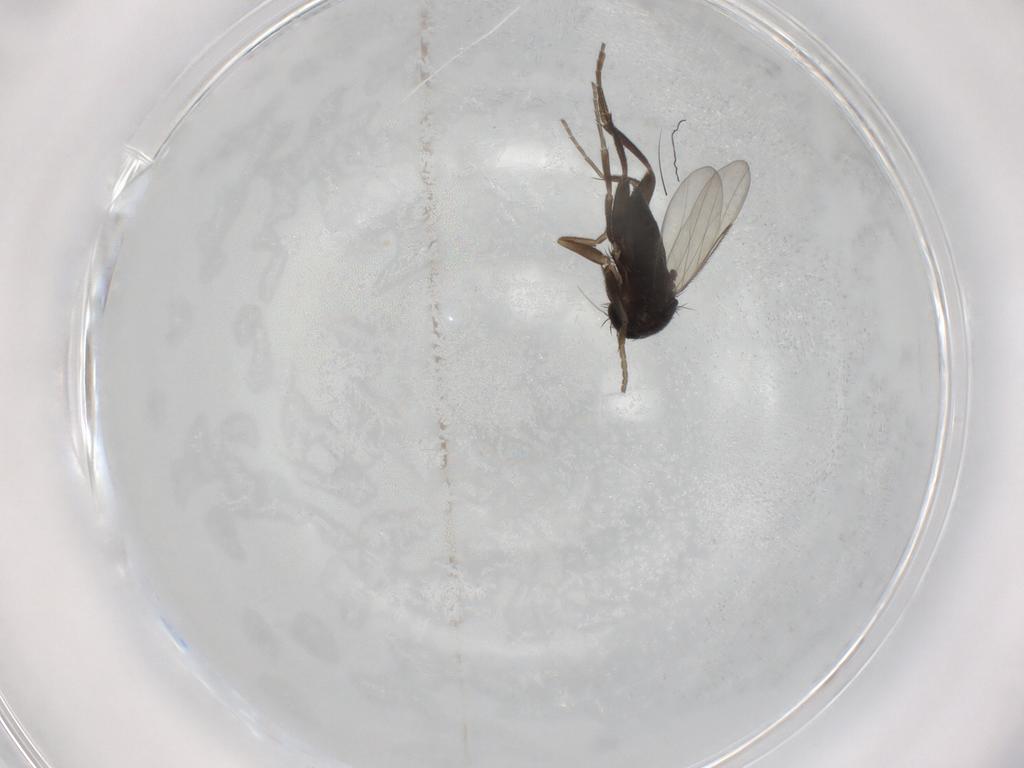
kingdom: Animalia
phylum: Arthropoda
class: Insecta
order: Diptera
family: Phoridae
